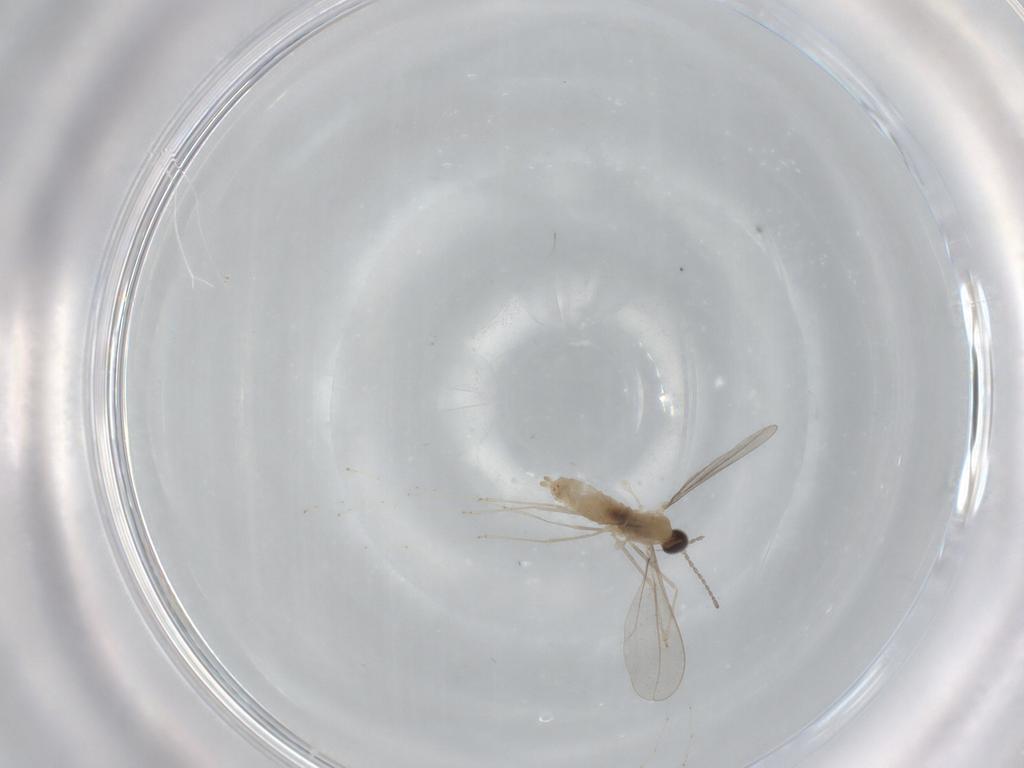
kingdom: Animalia
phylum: Arthropoda
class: Insecta
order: Diptera
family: Cecidomyiidae
